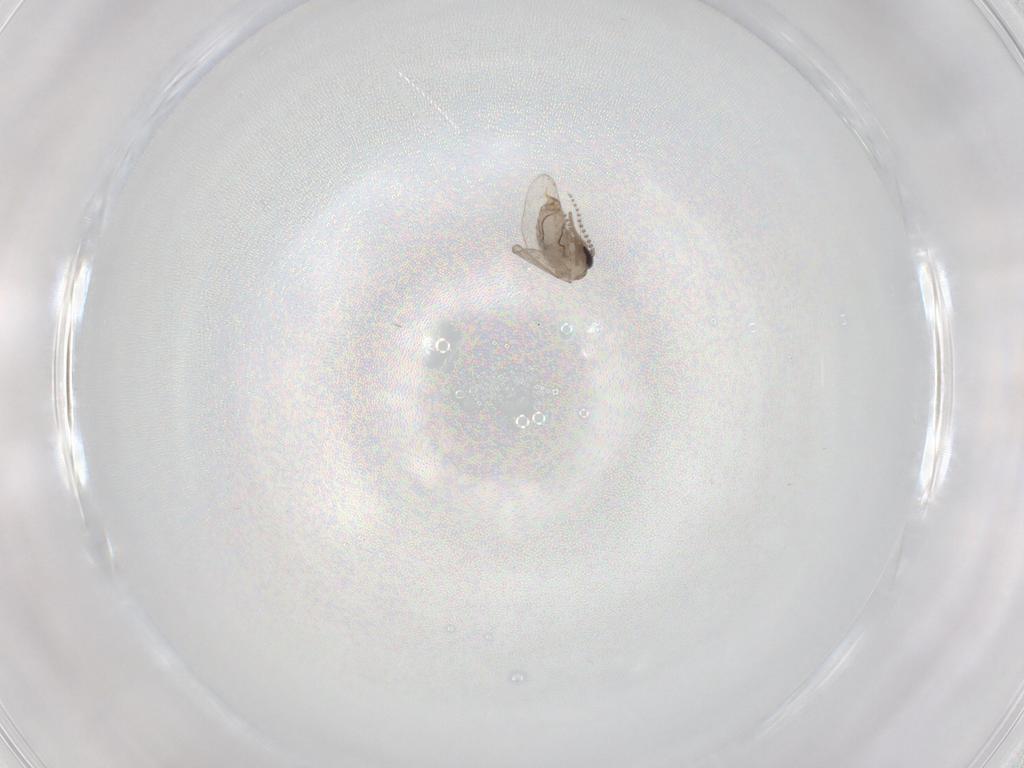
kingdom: Animalia
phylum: Arthropoda
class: Insecta
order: Diptera
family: Psychodidae
